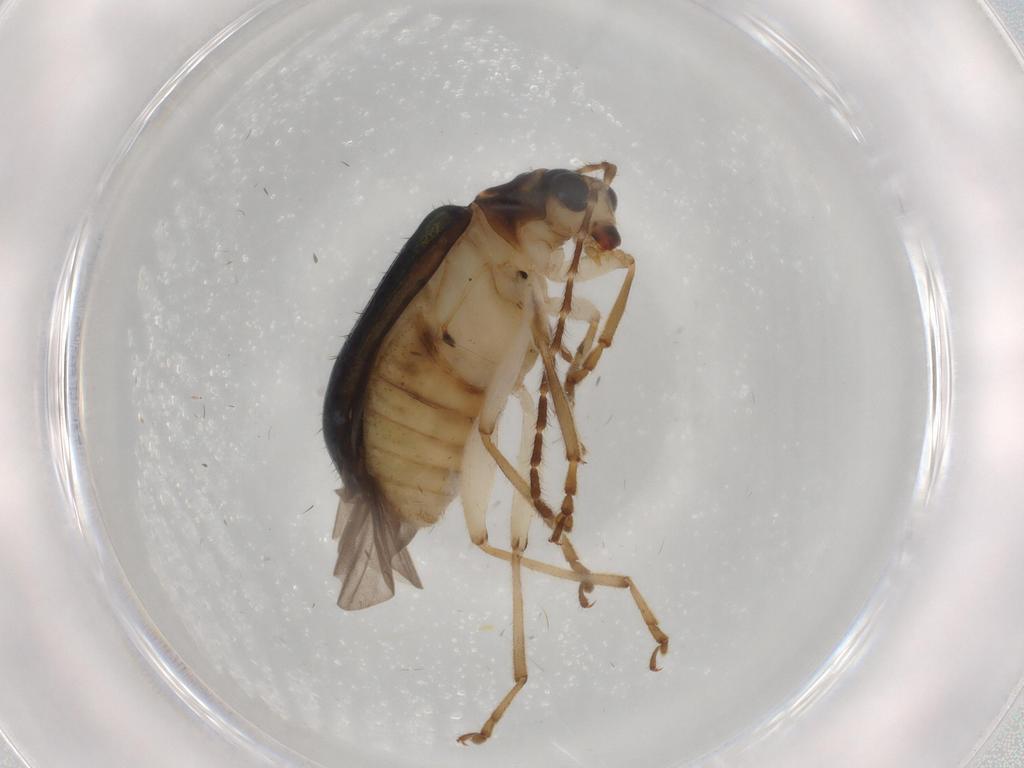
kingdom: Animalia
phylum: Arthropoda
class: Insecta
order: Coleoptera
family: Chrysomelidae
